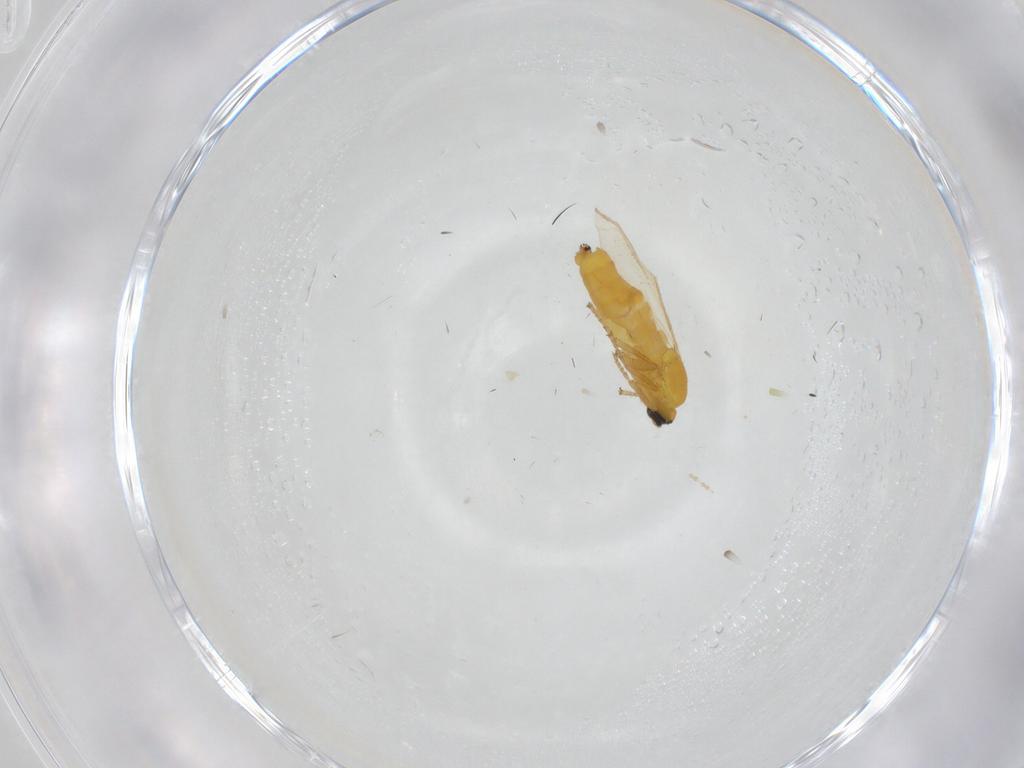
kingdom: Animalia
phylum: Arthropoda
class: Insecta
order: Diptera
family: Scatopsidae
